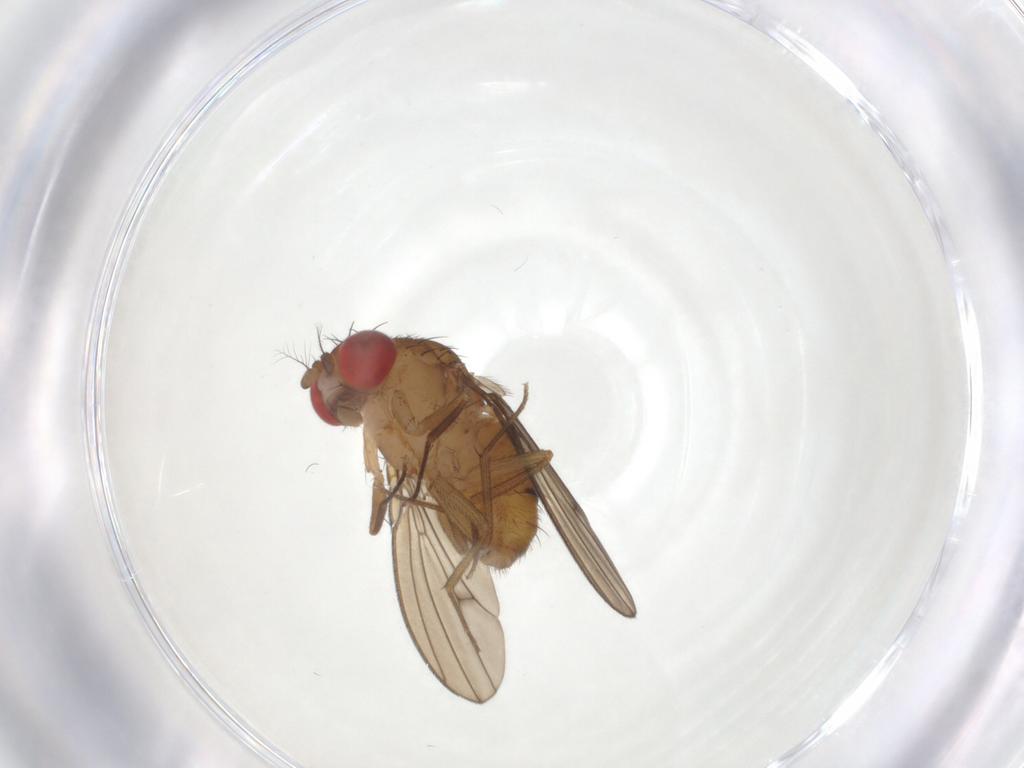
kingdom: Animalia
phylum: Arthropoda
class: Insecta
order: Diptera
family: Drosophilidae
